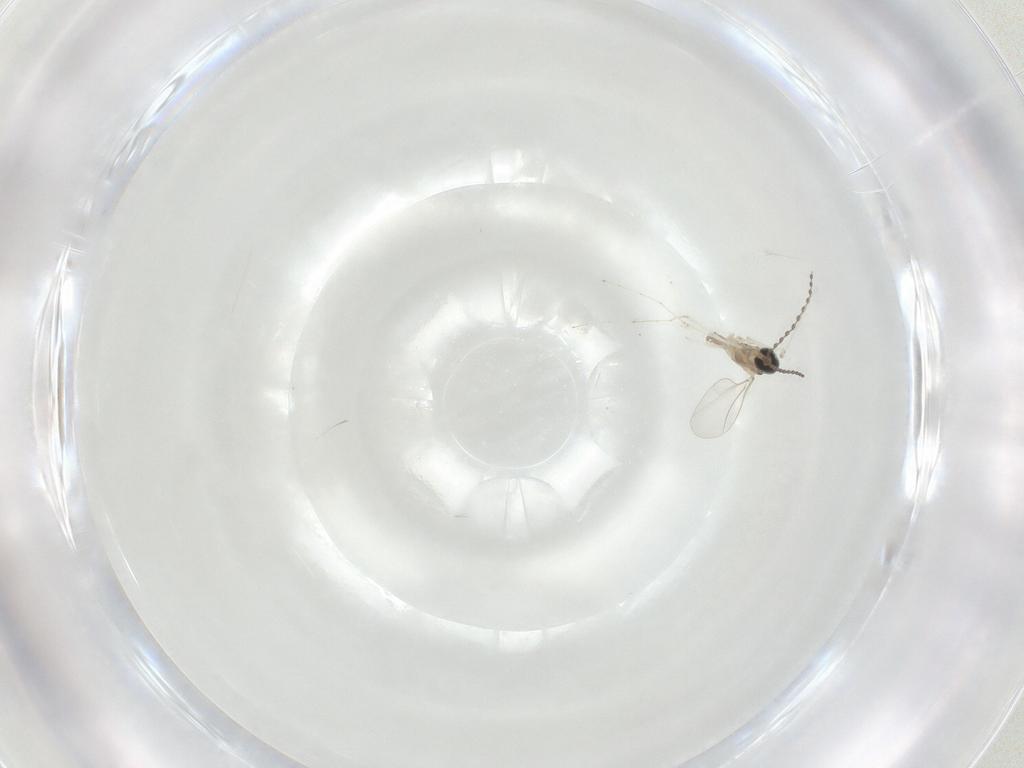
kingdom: Animalia
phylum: Arthropoda
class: Insecta
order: Diptera
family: Cecidomyiidae
